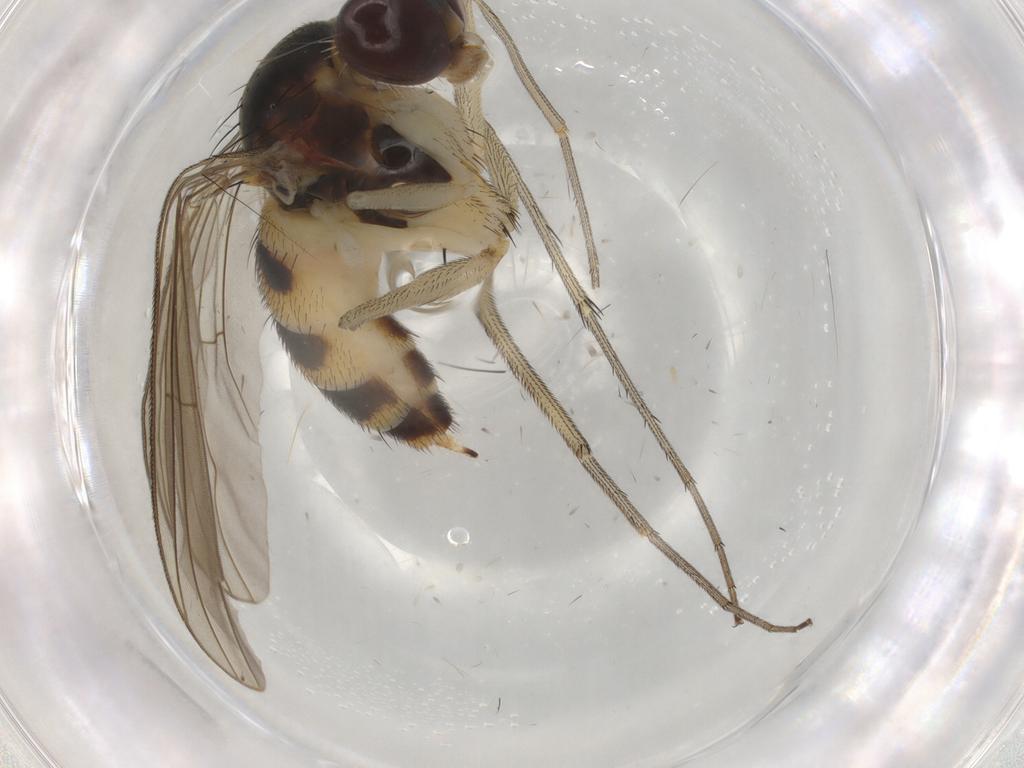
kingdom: Animalia
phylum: Arthropoda
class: Insecta
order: Diptera
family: Dolichopodidae
